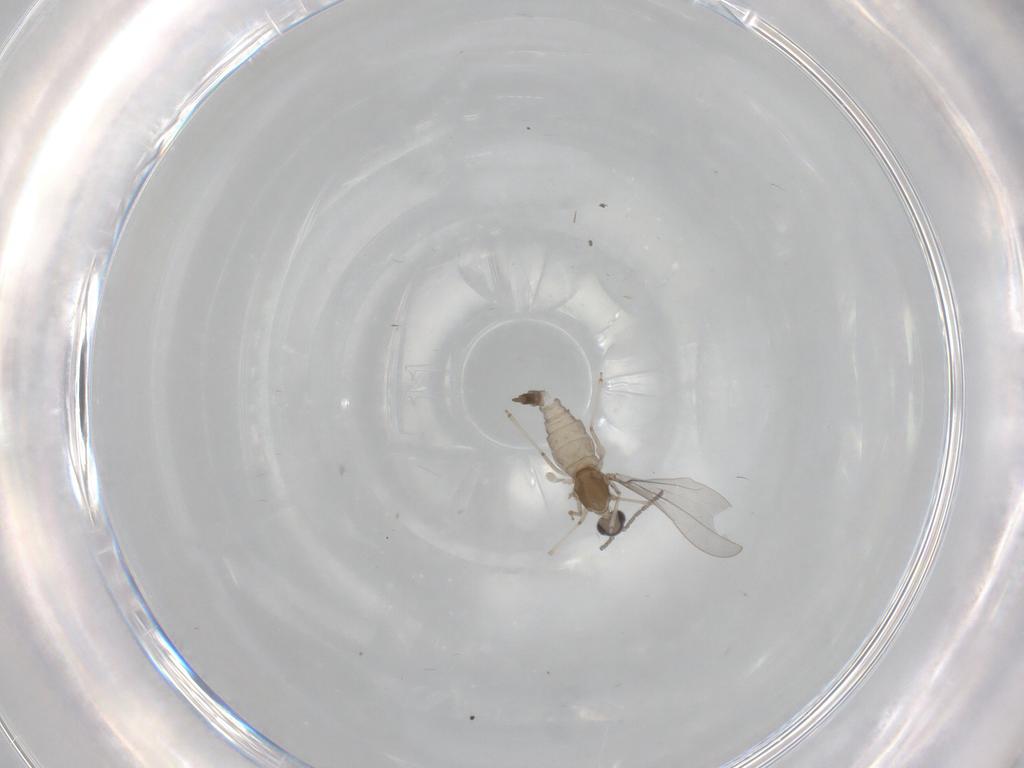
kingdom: Animalia
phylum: Arthropoda
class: Insecta
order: Diptera
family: Cecidomyiidae
